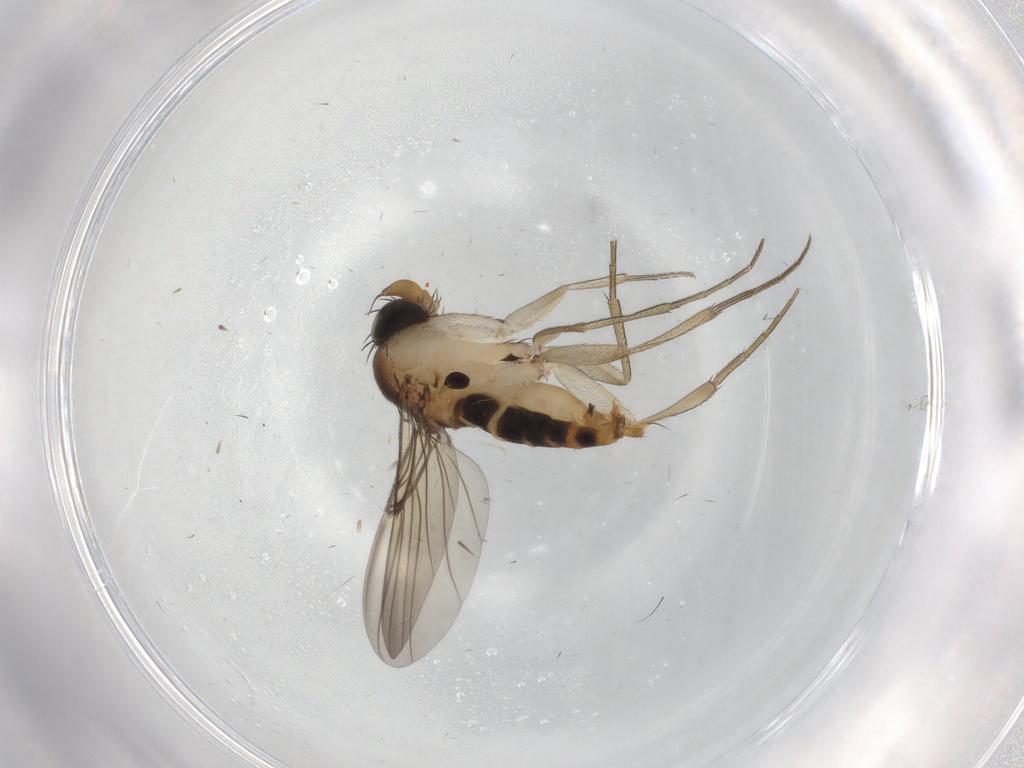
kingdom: Animalia
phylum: Arthropoda
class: Insecta
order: Diptera
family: Phoridae
